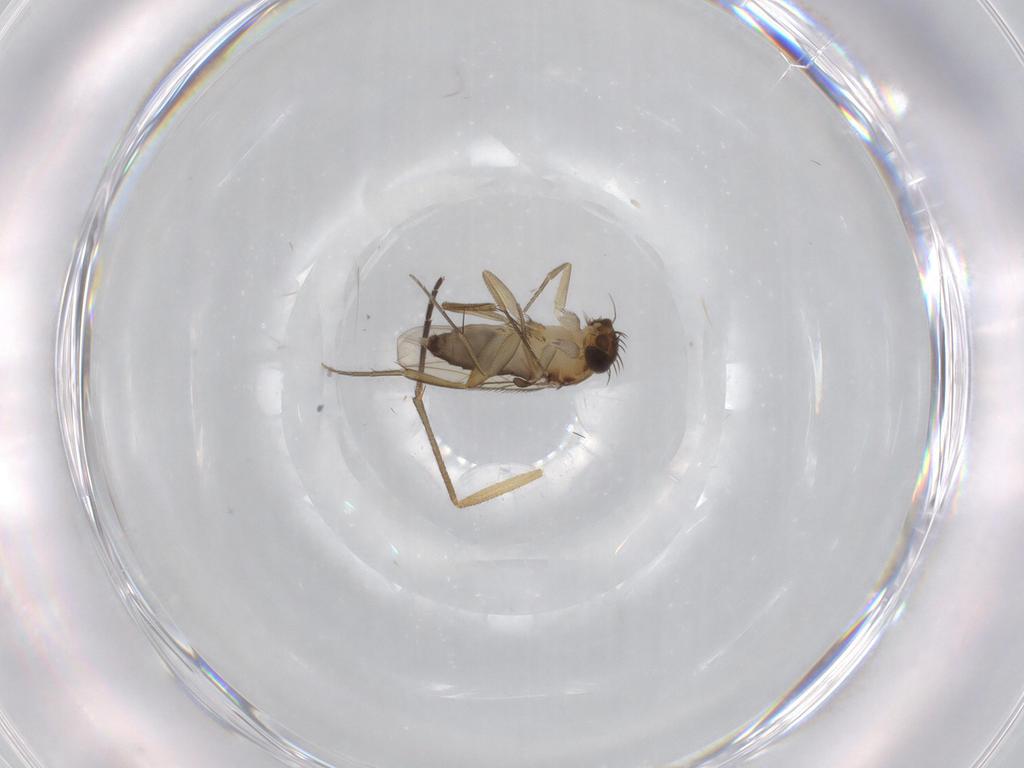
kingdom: Animalia
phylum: Arthropoda
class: Insecta
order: Diptera
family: Phoridae
